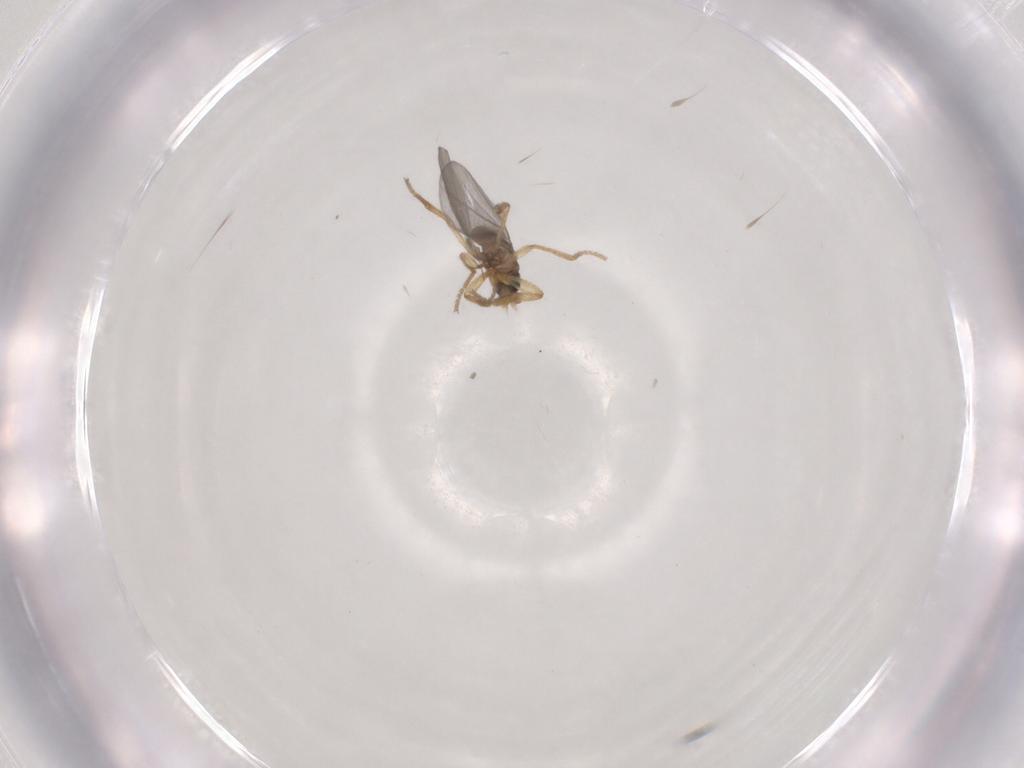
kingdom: Animalia
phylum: Arthropoda
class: Insecta
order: Diptera
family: Phoridae
